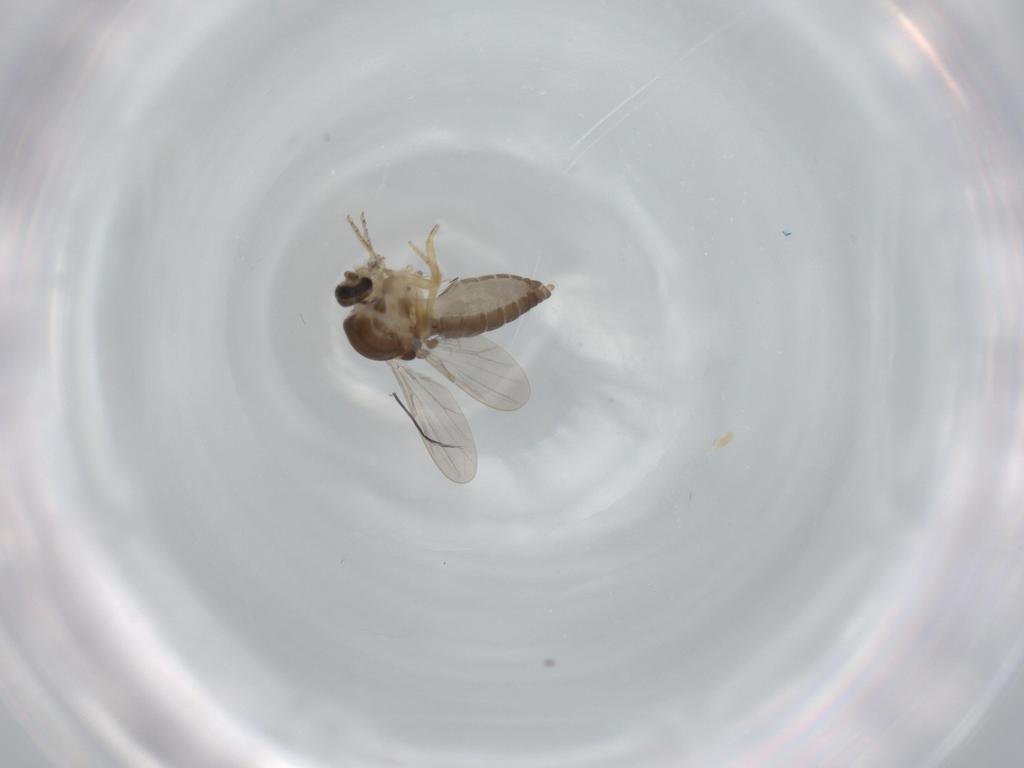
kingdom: Animalia
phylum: Arthropoda
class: Insecta
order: Diptera
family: Ceratopogonidae
